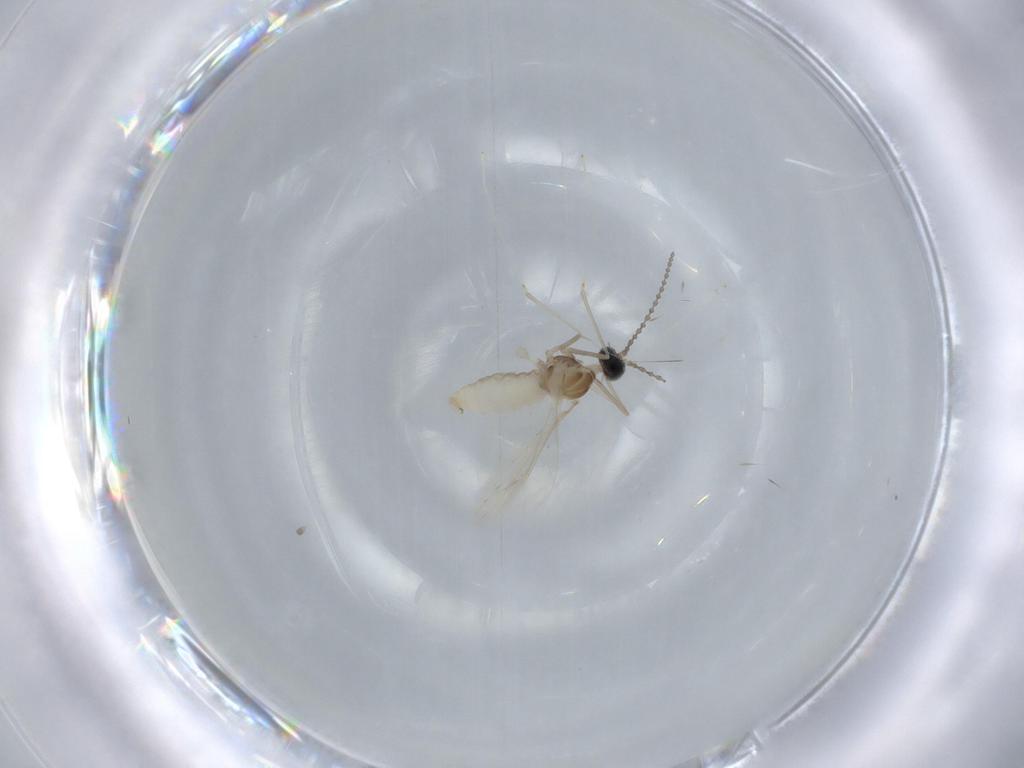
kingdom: Animalia
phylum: Arthropoda
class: Insecta
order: Diptera
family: Cecidomyiidae
